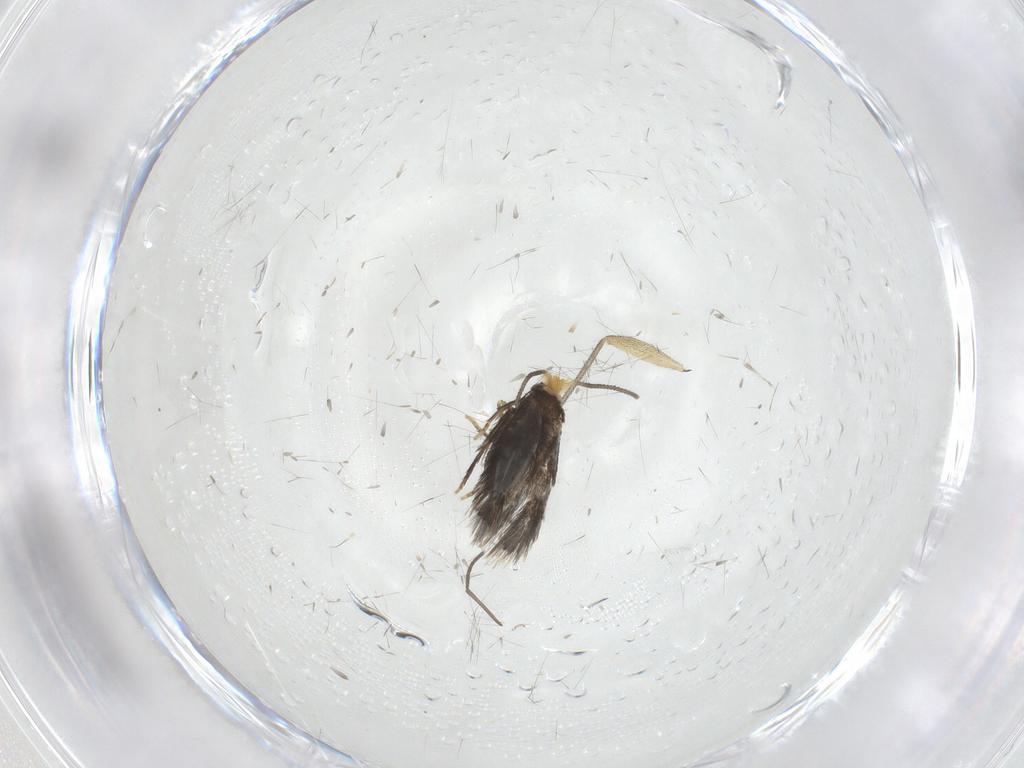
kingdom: Animalia
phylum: Arthropoda
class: Insecta
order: Lepidoptera
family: Nepticulidae
